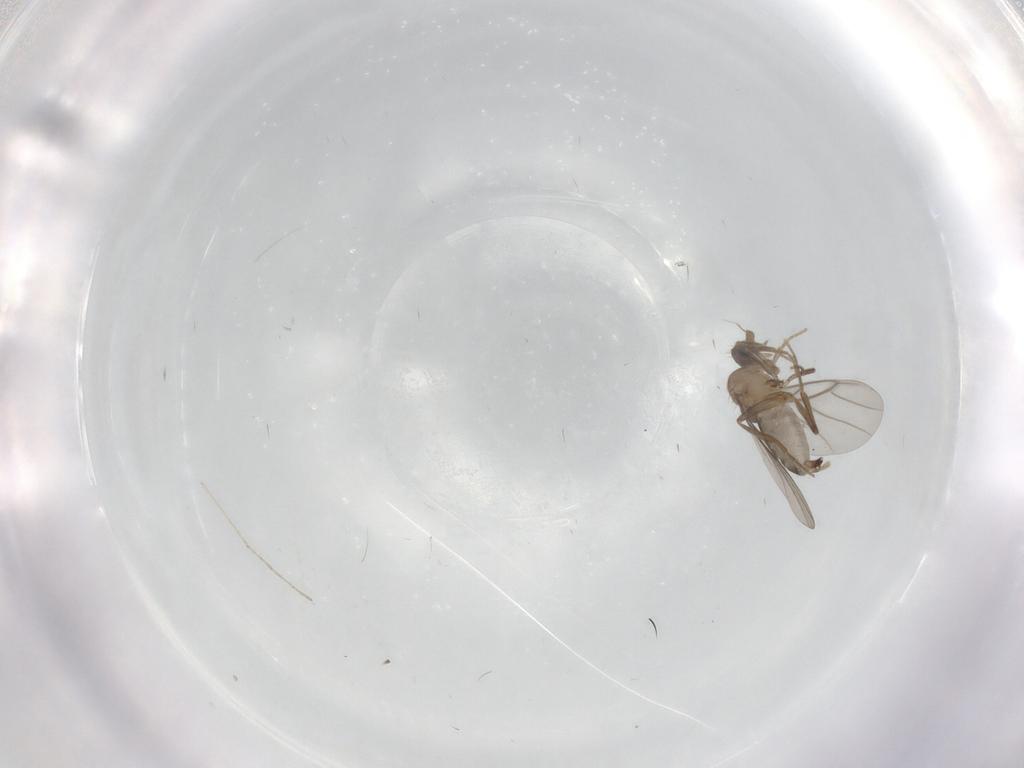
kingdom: Animalia
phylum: Arthropoda
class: Insecta
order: Diptera
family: Cecidomyiidae
